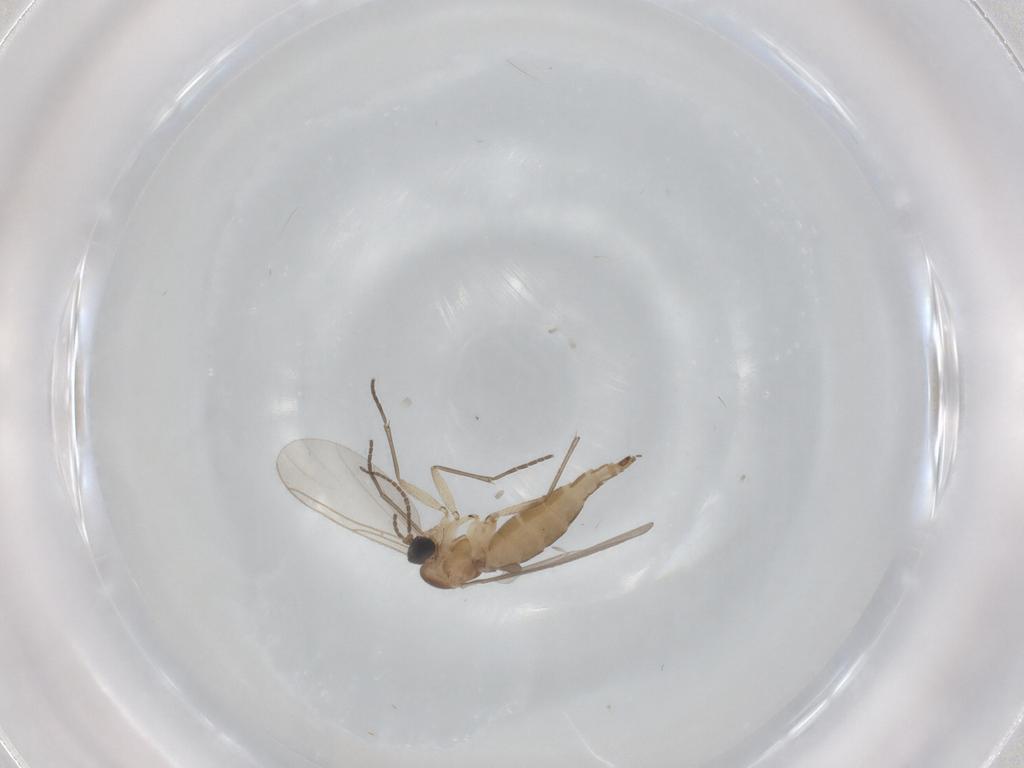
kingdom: Animalia
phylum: Arthropoda
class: Insecta
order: Diptera
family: Sciaridae
